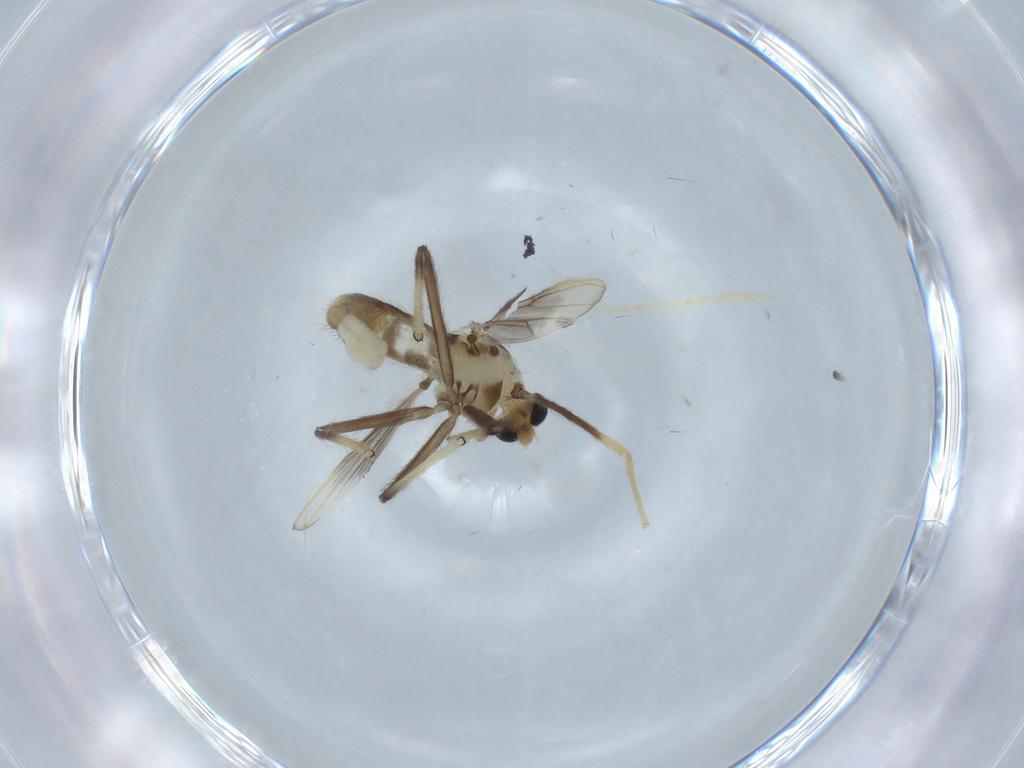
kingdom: Animalia
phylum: Arthropoda
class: Insecta
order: Diptera
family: Chironomidae
